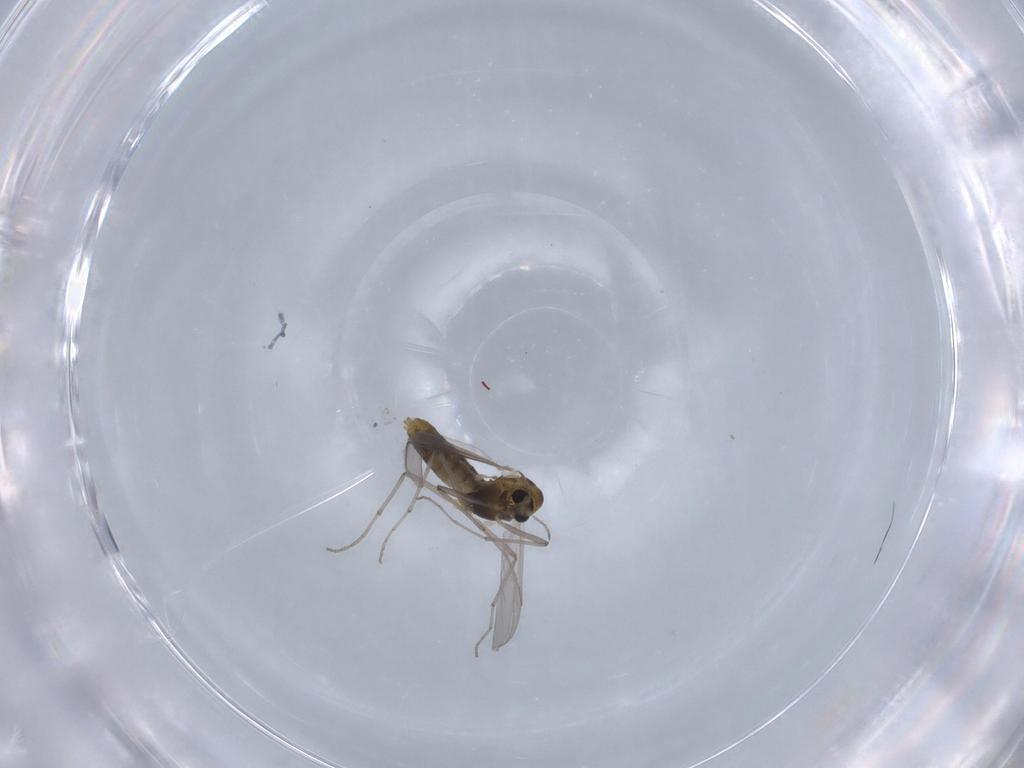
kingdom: Animalia
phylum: Arthropoda
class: Insecta
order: Diptera
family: Chironomidae
